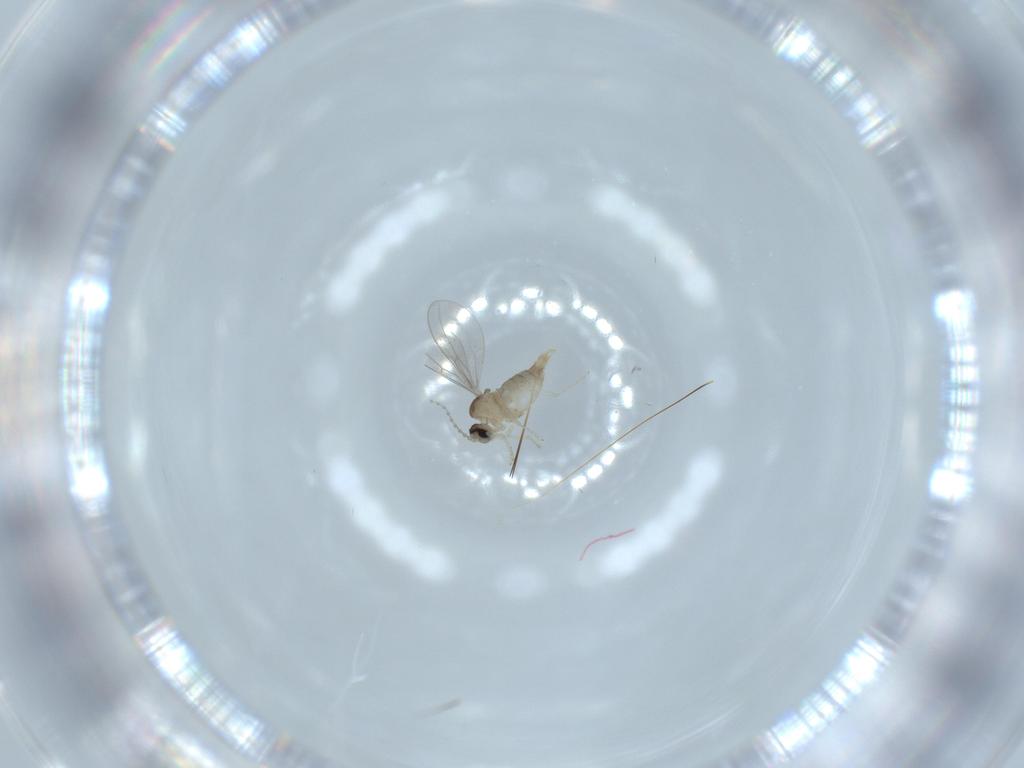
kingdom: Animalia
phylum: Arthropoda
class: Insecta
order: Diptera
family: Cecidomyiidae
